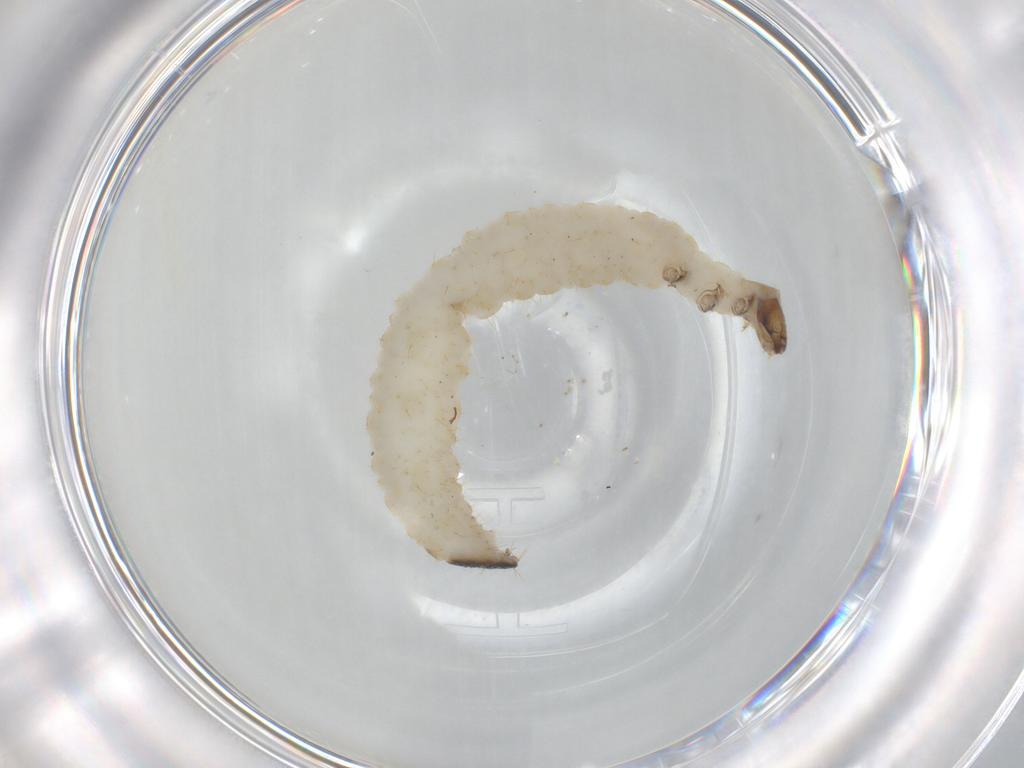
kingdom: Animalia
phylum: Arthropoda
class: Insecta
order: Coleoptera
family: Chrysomelidae
